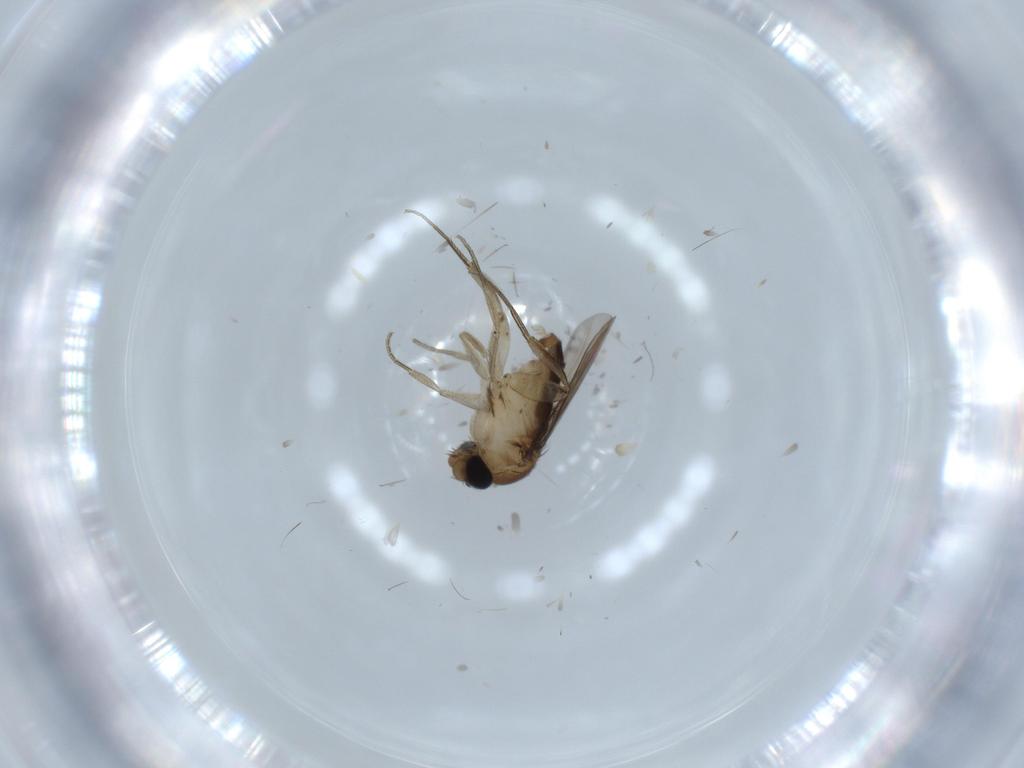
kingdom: Animalia
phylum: Arthropoda
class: Insecta
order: Diptera
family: Phoridae
